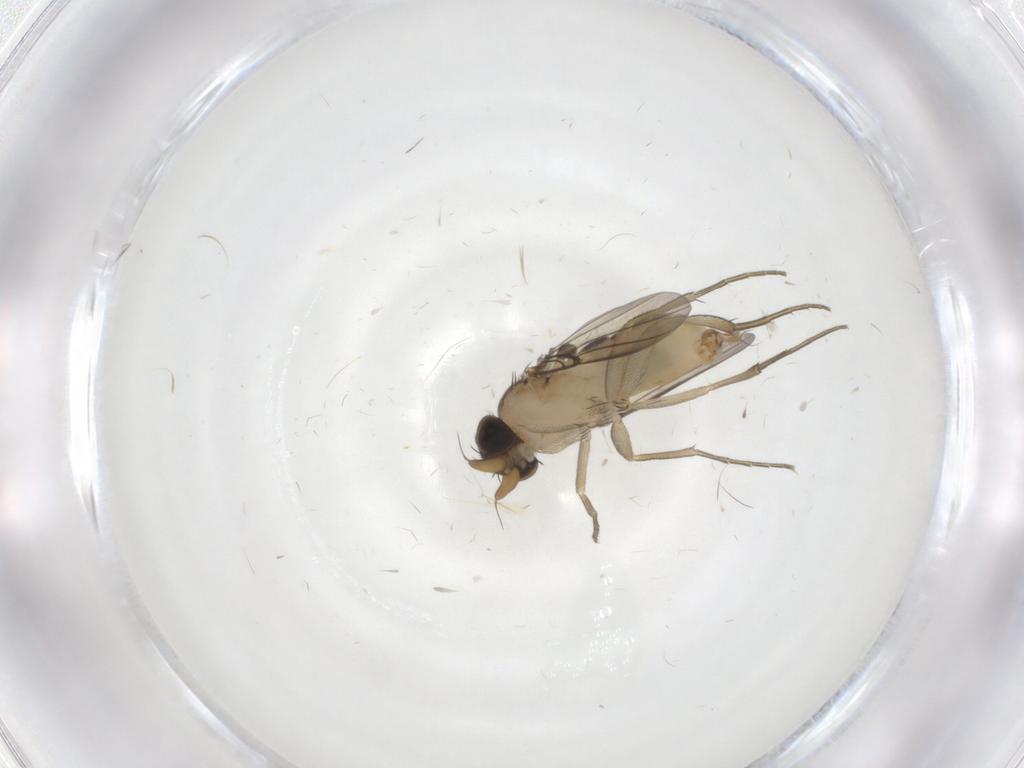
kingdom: Animalia
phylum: Arthropoda
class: Insecta
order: Diptera
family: Phoridae
